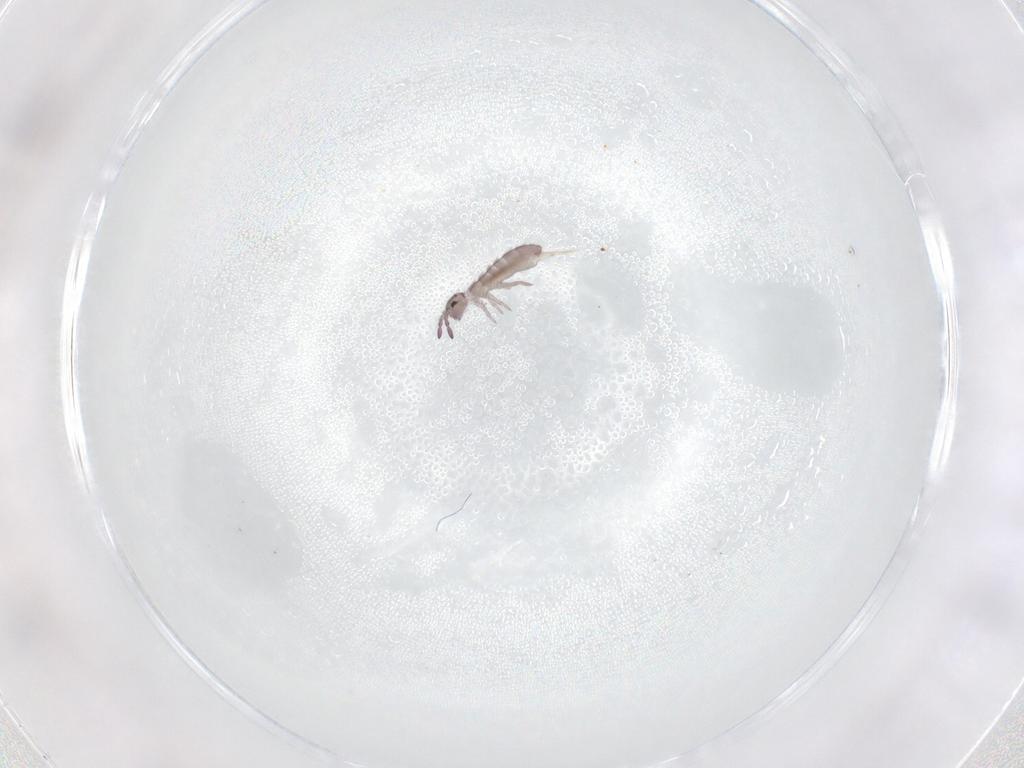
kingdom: Animalia
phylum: Arthropoda
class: Collembola
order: Entomobryomorpha
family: Isotomidae
